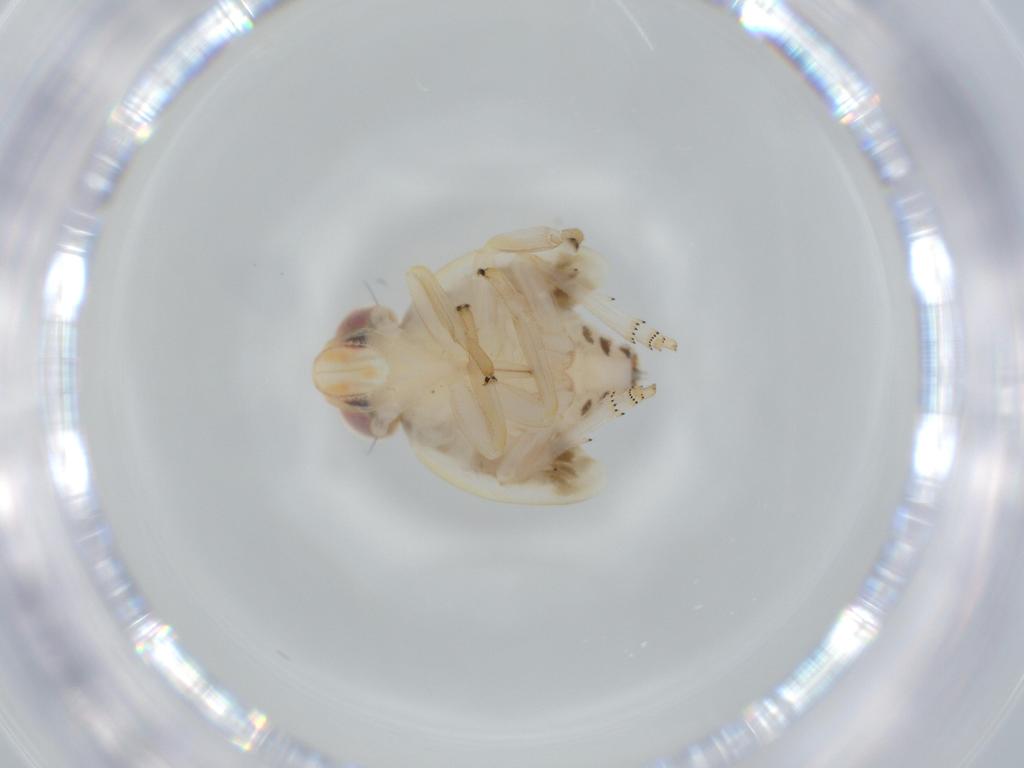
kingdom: Animalia
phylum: Arthropoda
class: Insecta
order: Hemiptera
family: Nogodinidae
